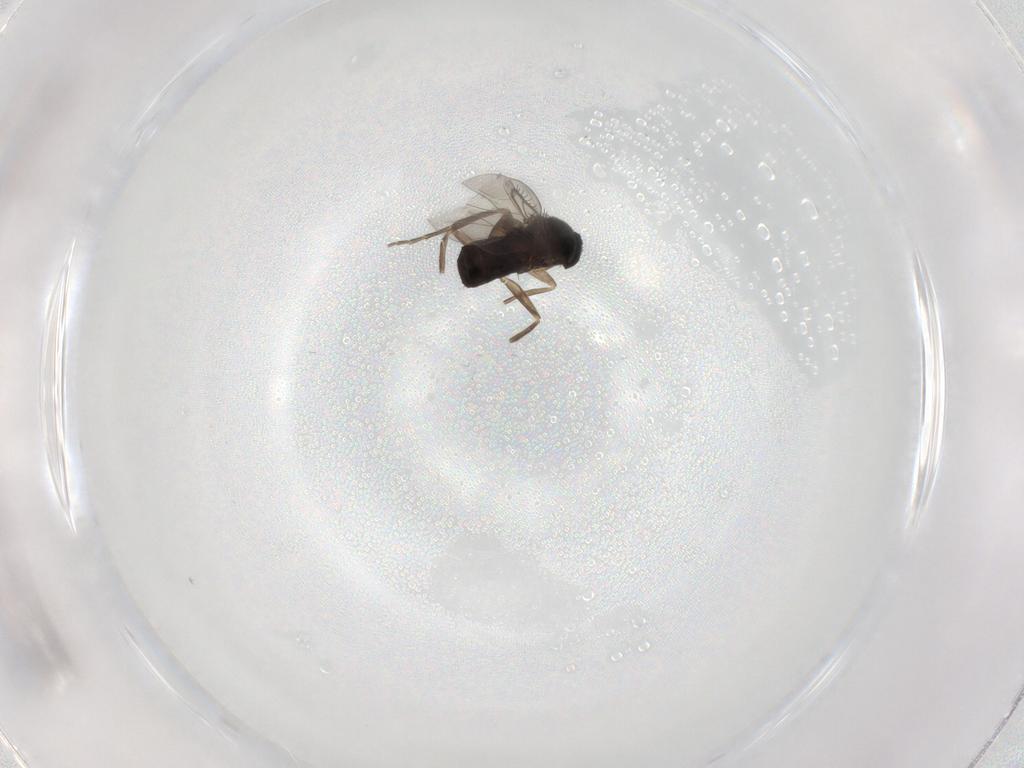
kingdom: Animalia
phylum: Arthropoda
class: Insecta
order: Diptera
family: Phoridae
